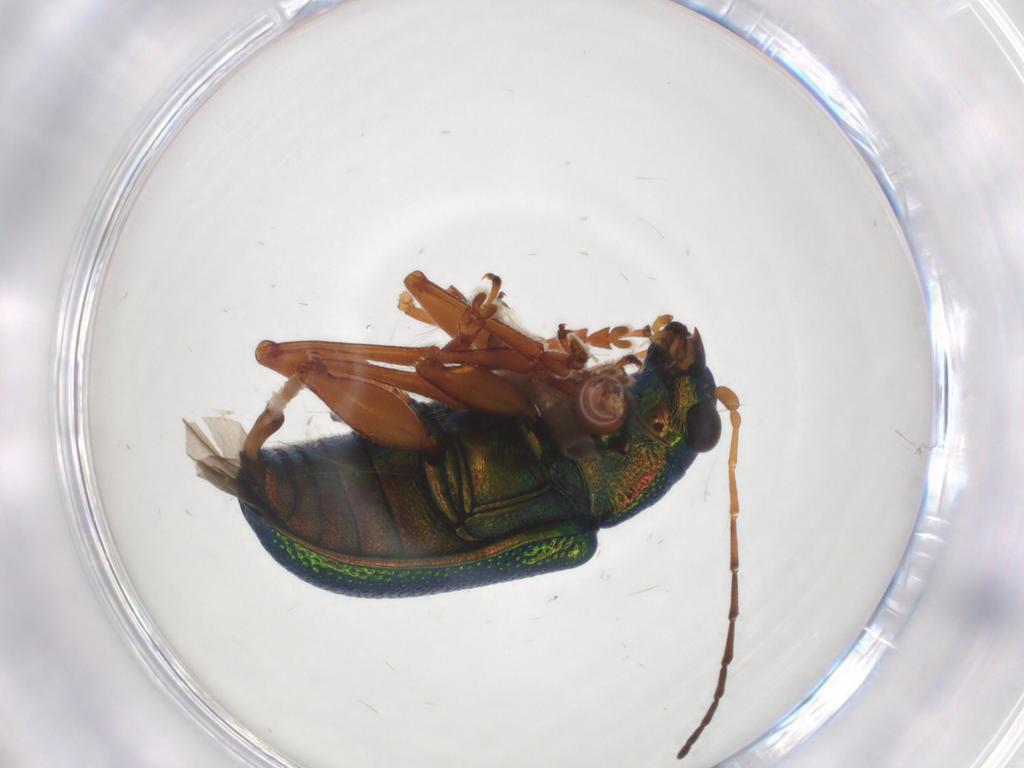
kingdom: Animalia
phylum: Arthropoda
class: Insecta
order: Coleoptera
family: Chrysomelidae
